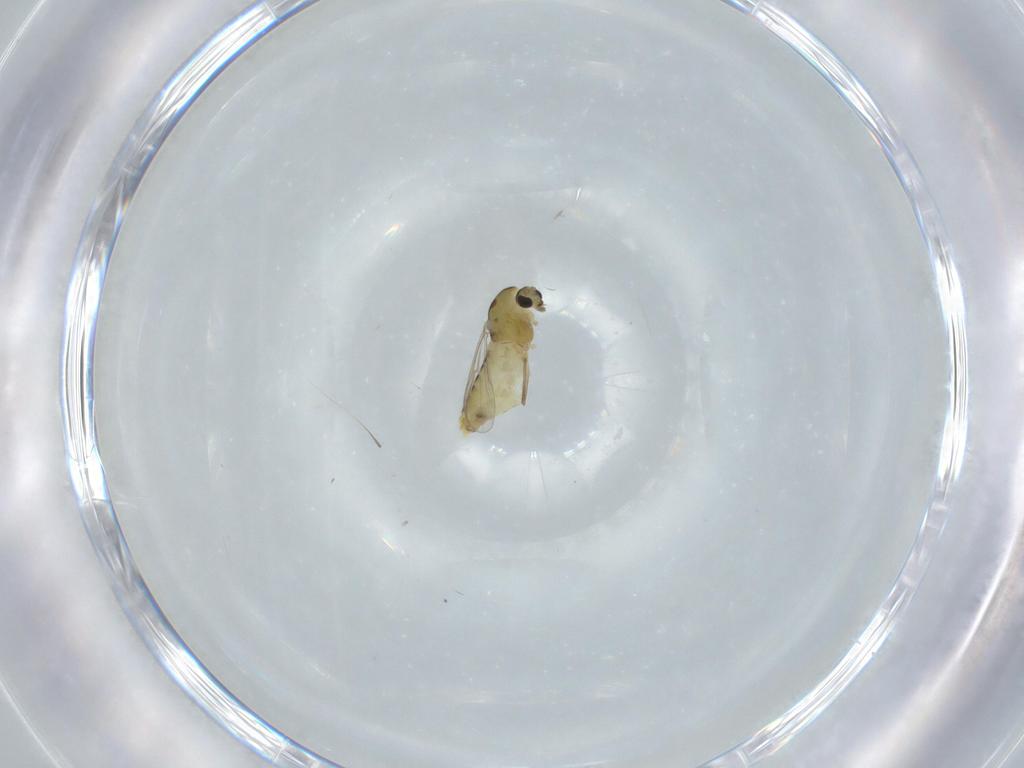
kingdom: Animalia
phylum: Arthropoda
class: Insecta
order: Diptera
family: Chironomidae
